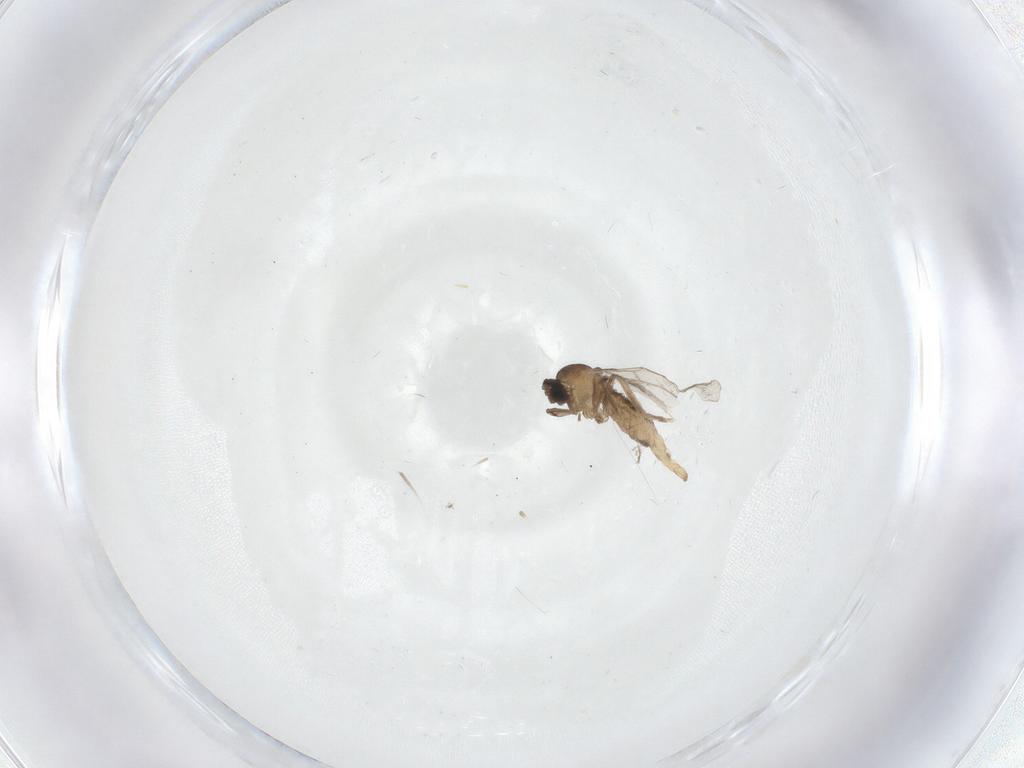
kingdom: Animalia
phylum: Arthropoda
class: Insecta
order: Diptera
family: Cecidomyiidae
